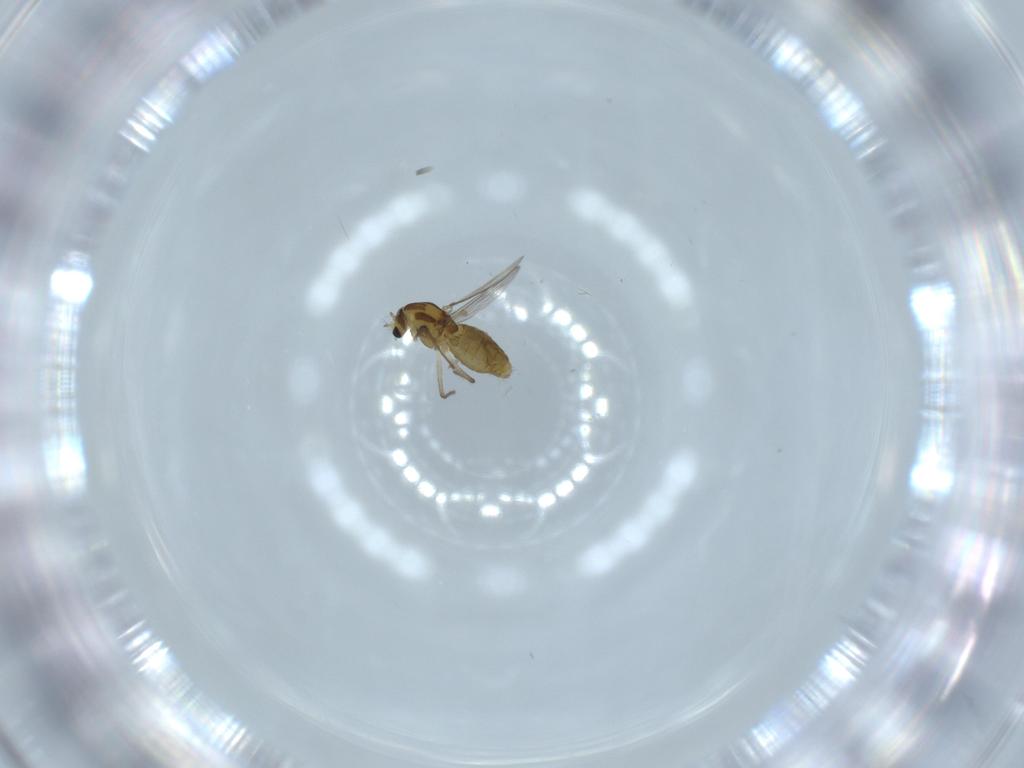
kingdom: Animalia
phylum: Arthropoda
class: Insecta
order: Diptera
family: Chironomidae
